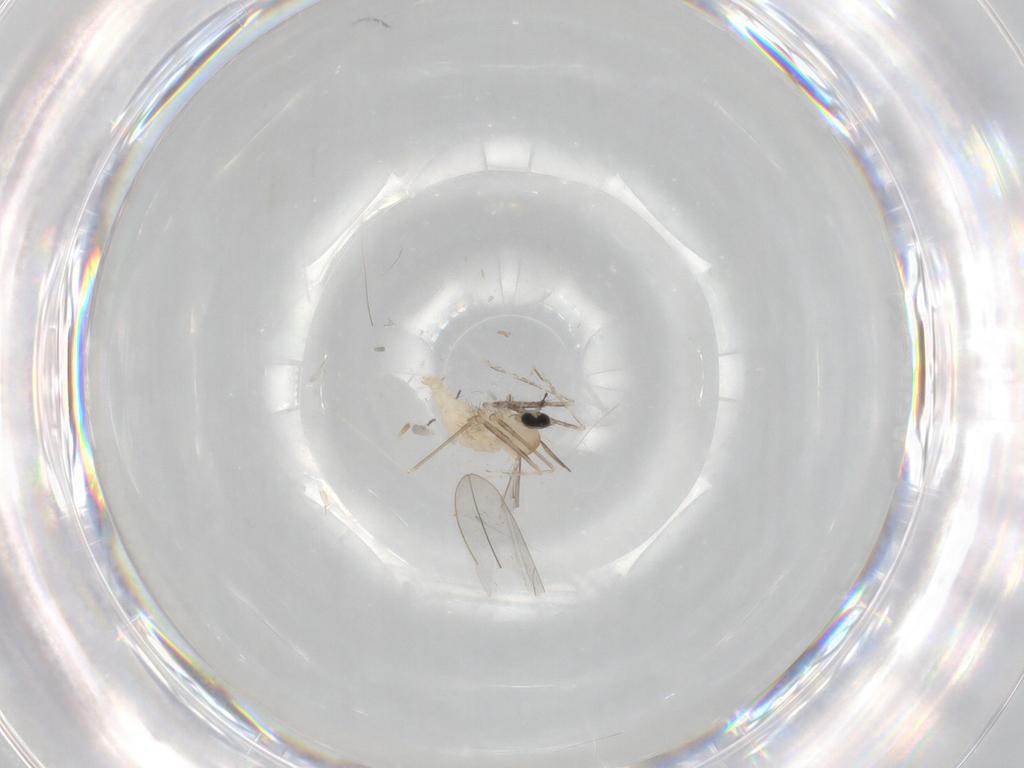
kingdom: Animalia
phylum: Arthropoda
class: Insecta
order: Diptera
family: Cecidomyiidae
